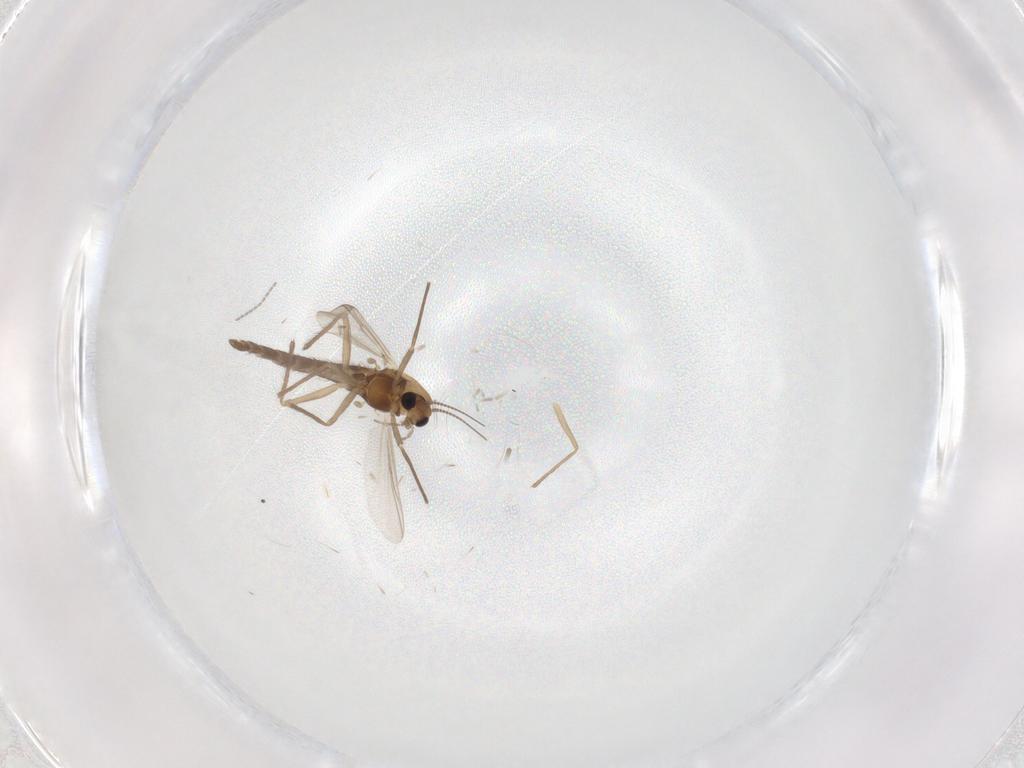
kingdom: Animalia
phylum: Arthropoda
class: Insecta
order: Diptera
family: Chironomidae
